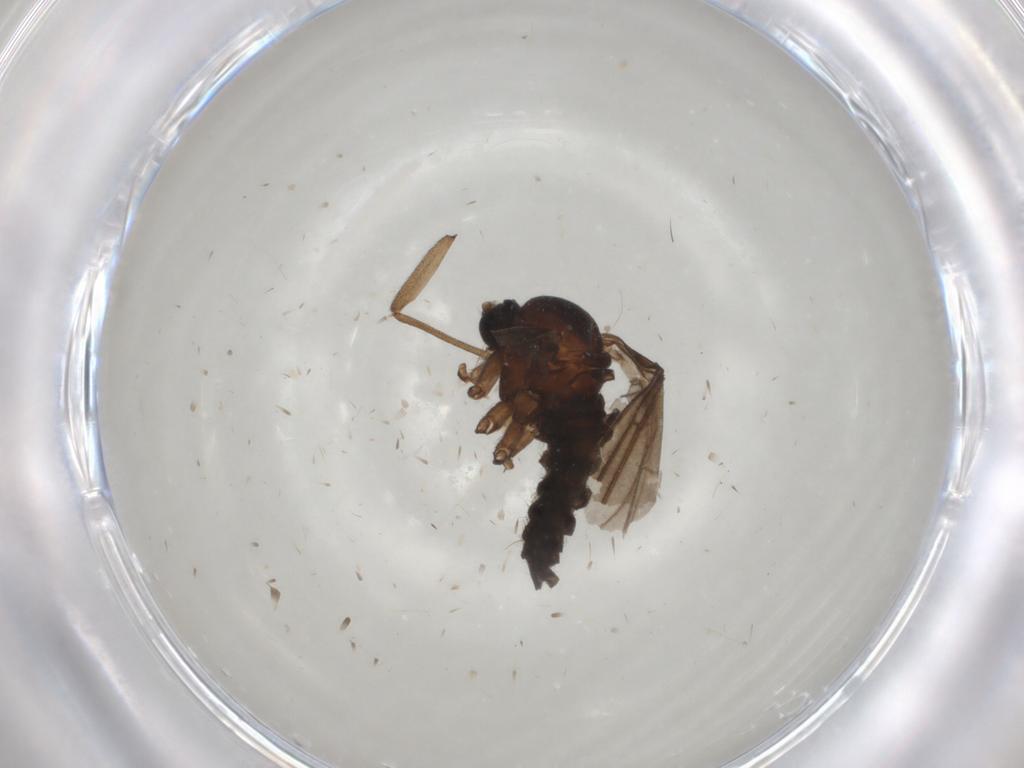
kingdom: Animalia
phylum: Arthropoda
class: Insecta
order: Diptera
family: Sciaridae
